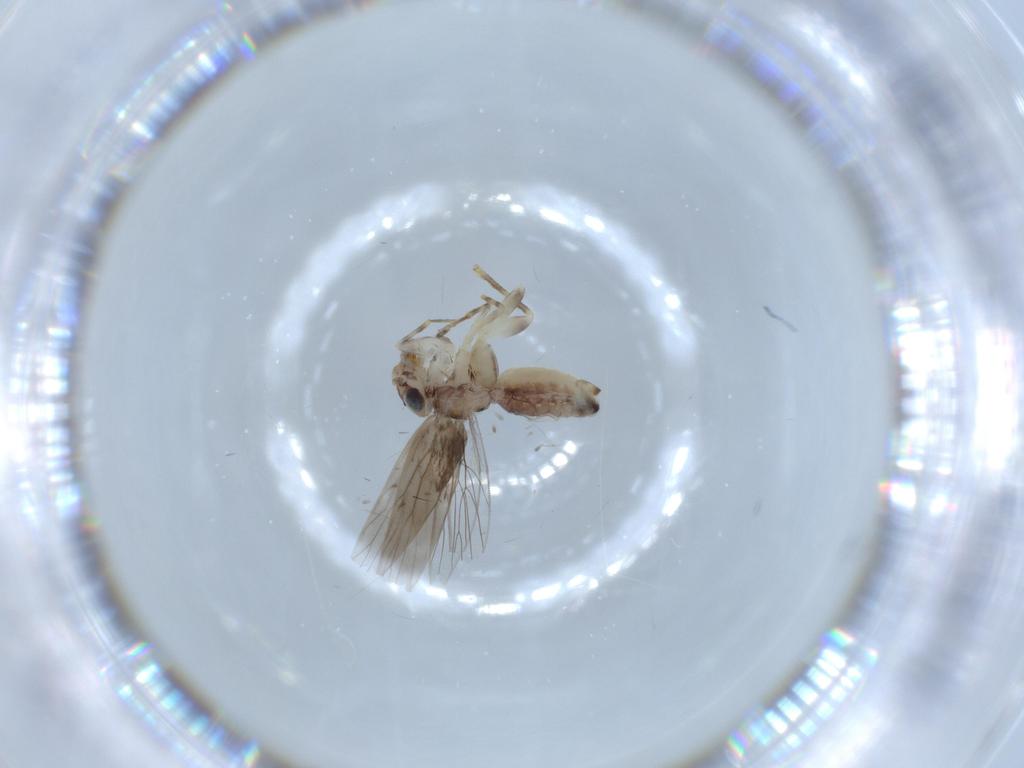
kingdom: Animalia
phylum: Arthropoda
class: Insecta
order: Psocodea
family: Lepidopsocidae
